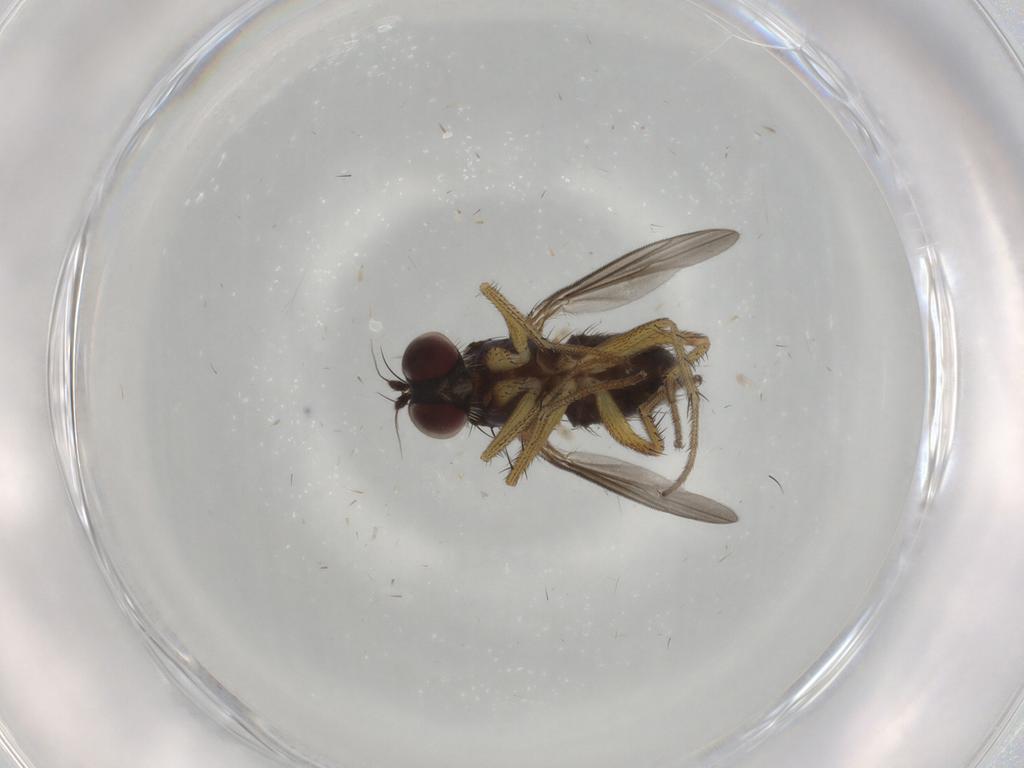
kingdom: Animalia
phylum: Arthropoda
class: Insecta
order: Diptera
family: Dolichopodidae
